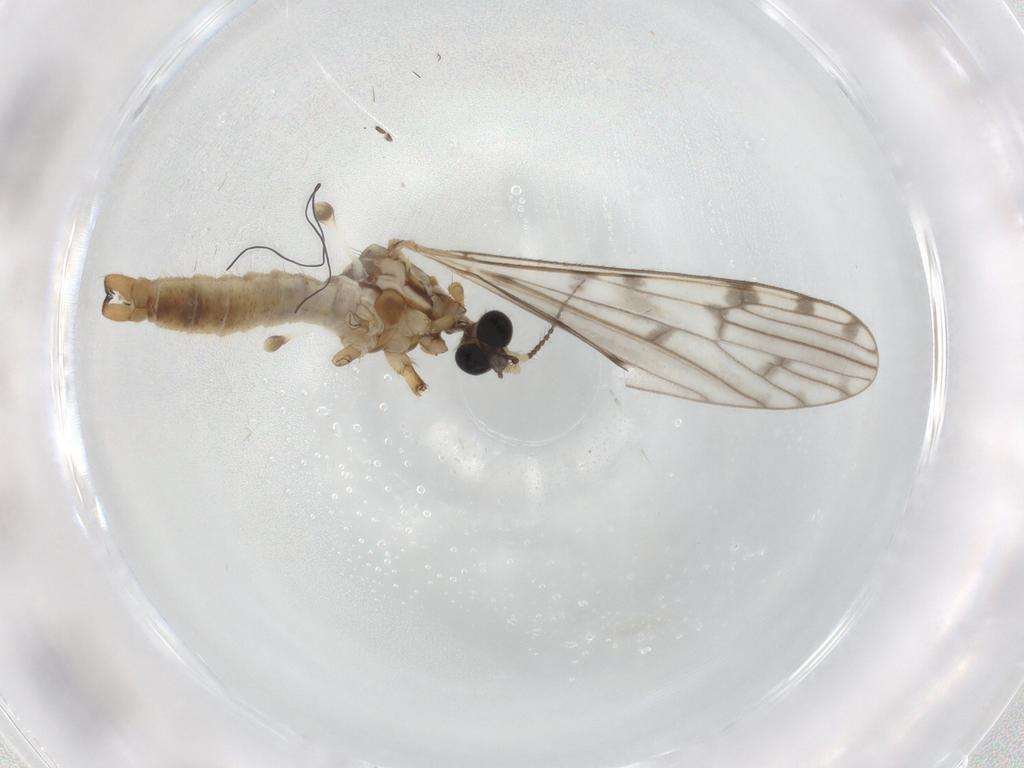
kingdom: Animalia
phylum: Arthropoda
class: Insecta
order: Diptera
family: Limoniidae
